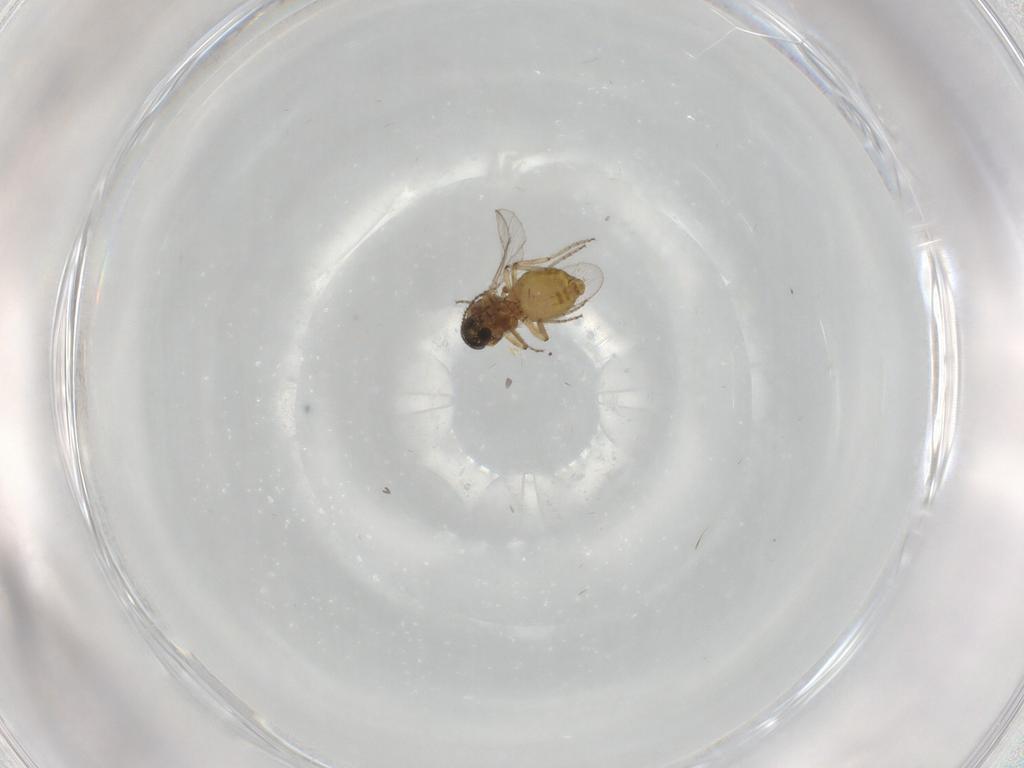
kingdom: Animalia
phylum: Arthropoda
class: Insecta
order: Diptera
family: Ceratopogonidae
